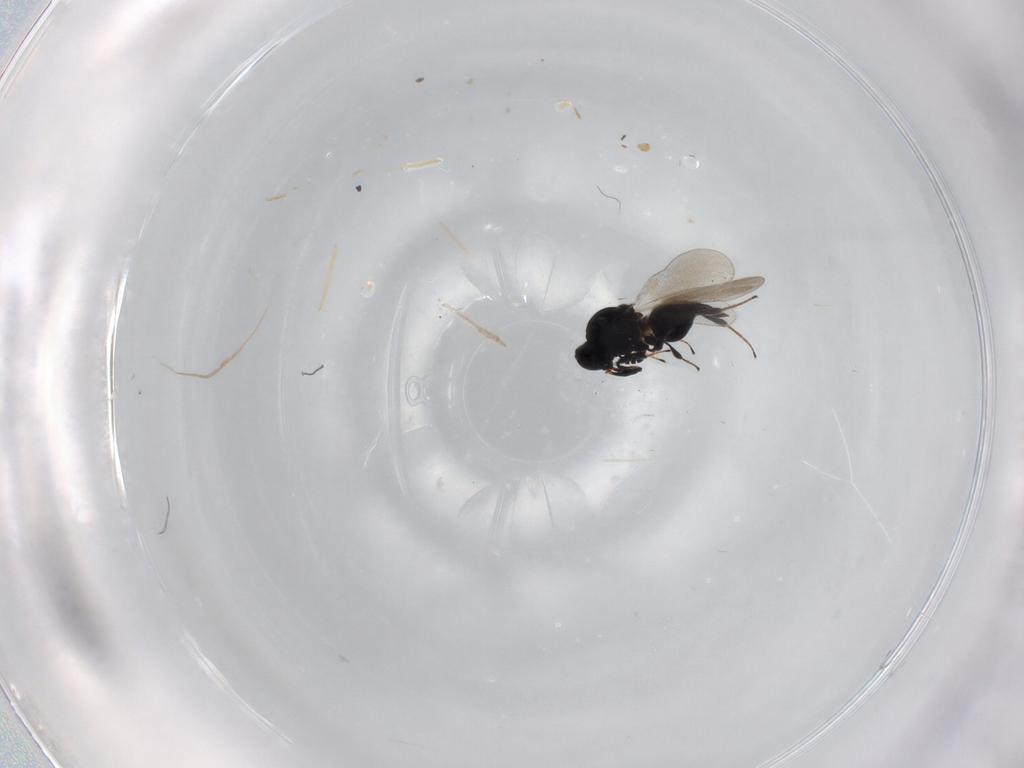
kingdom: Animalia
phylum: Arthropoda
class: Insecta
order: Hymenoptera
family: Platygastridae
